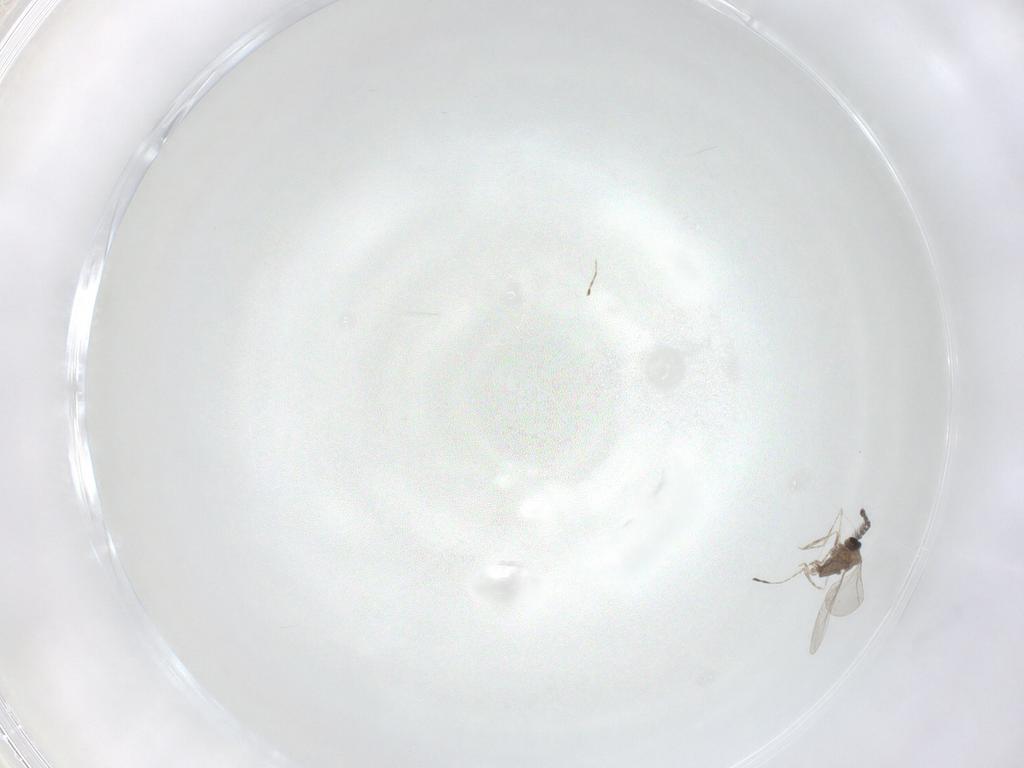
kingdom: Animalia
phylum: Arthropoda
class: Insecta
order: Diptera
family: Cecidomyiidae
